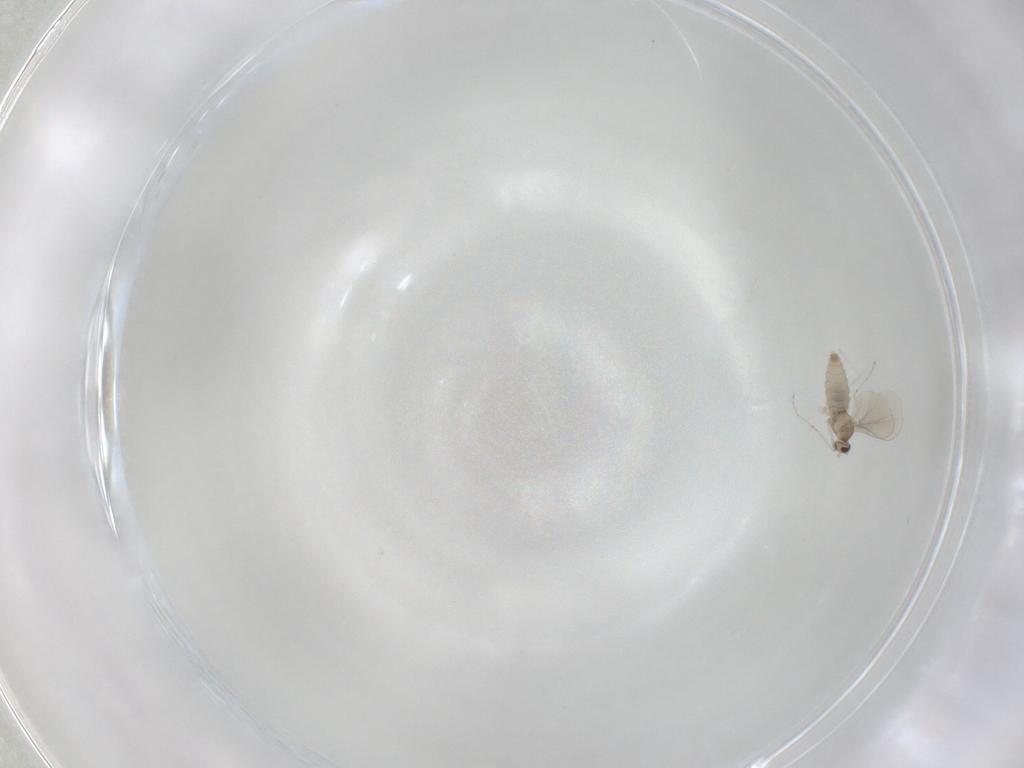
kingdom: Animalia
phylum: Arthropoda
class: Insecta
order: Diptera
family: Cecidomyiidae
